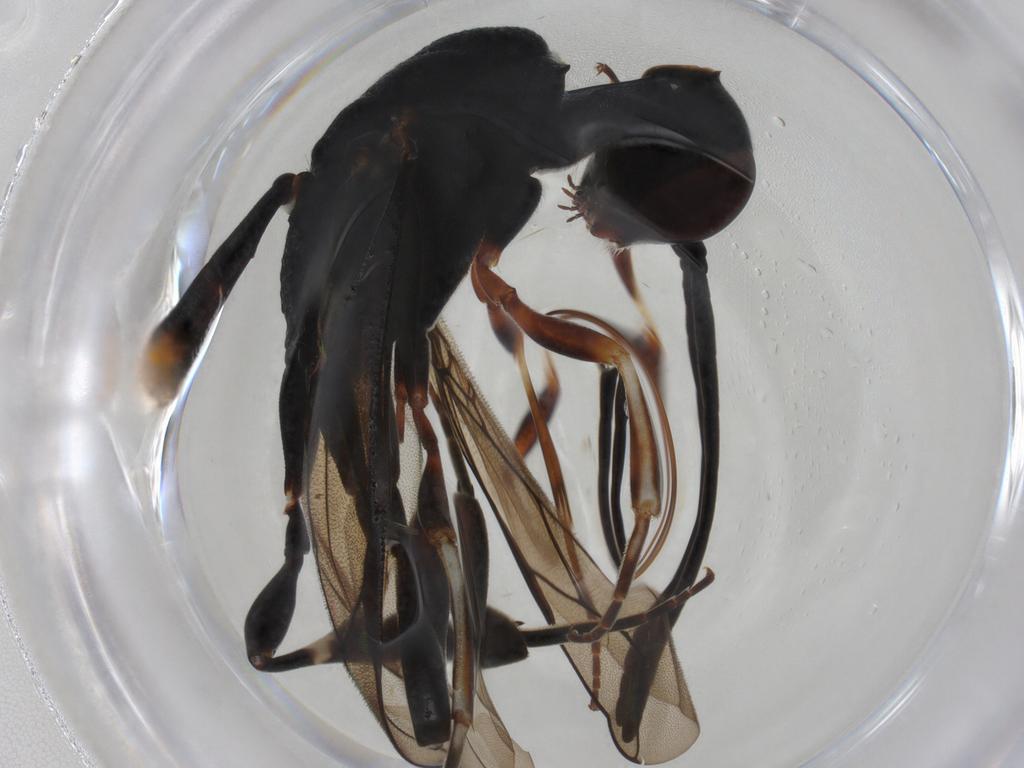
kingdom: Animalia
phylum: Arthropoda
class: Insecta
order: Hymenoptera
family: Gasteruptiidae
